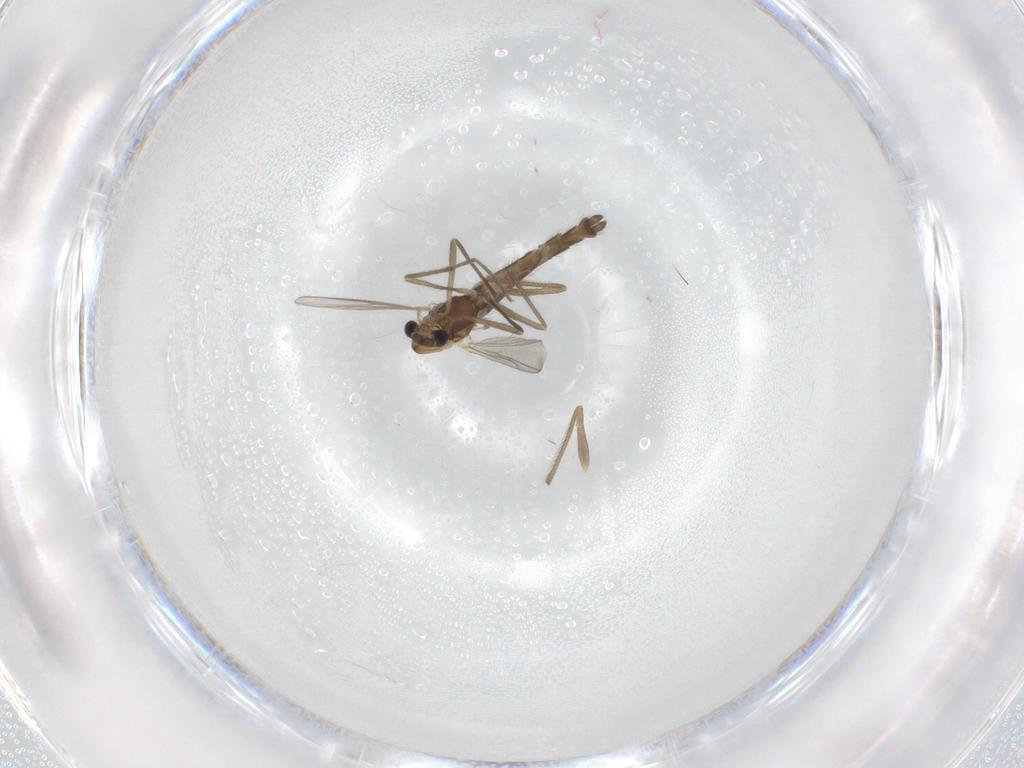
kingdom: Animalia
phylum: Arthropoda
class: Insecta
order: Diptera
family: Chironomidae
